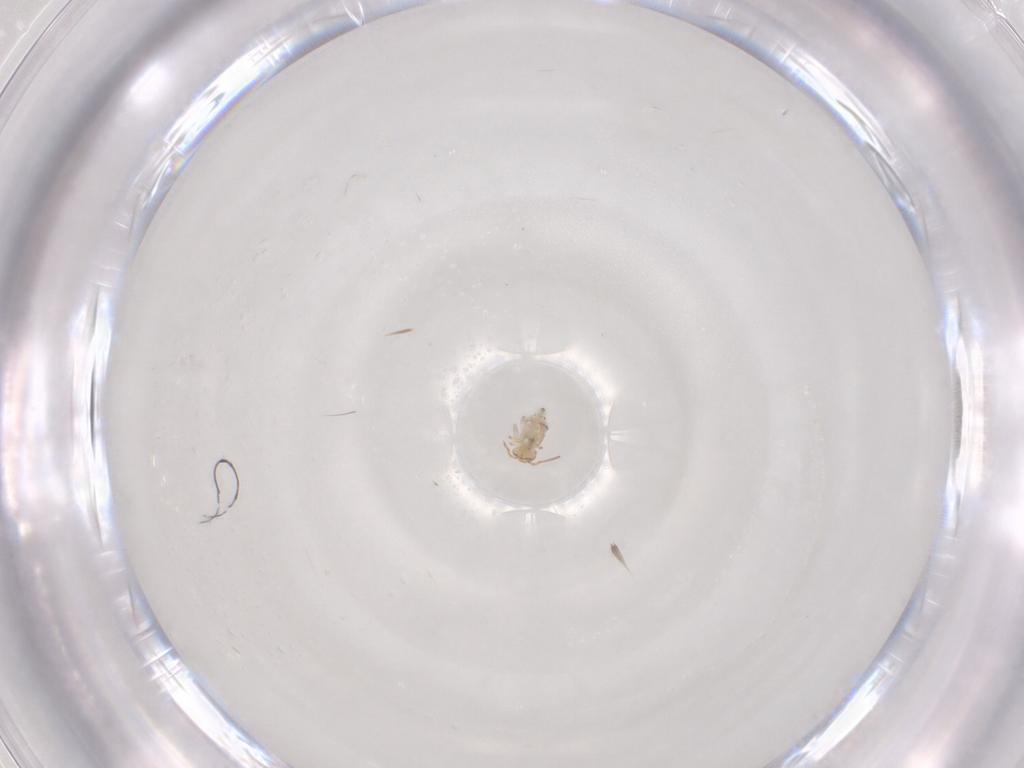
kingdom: Animalia
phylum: Arthropoda
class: Collembola
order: Symphypleona
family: Bourletiellidae
